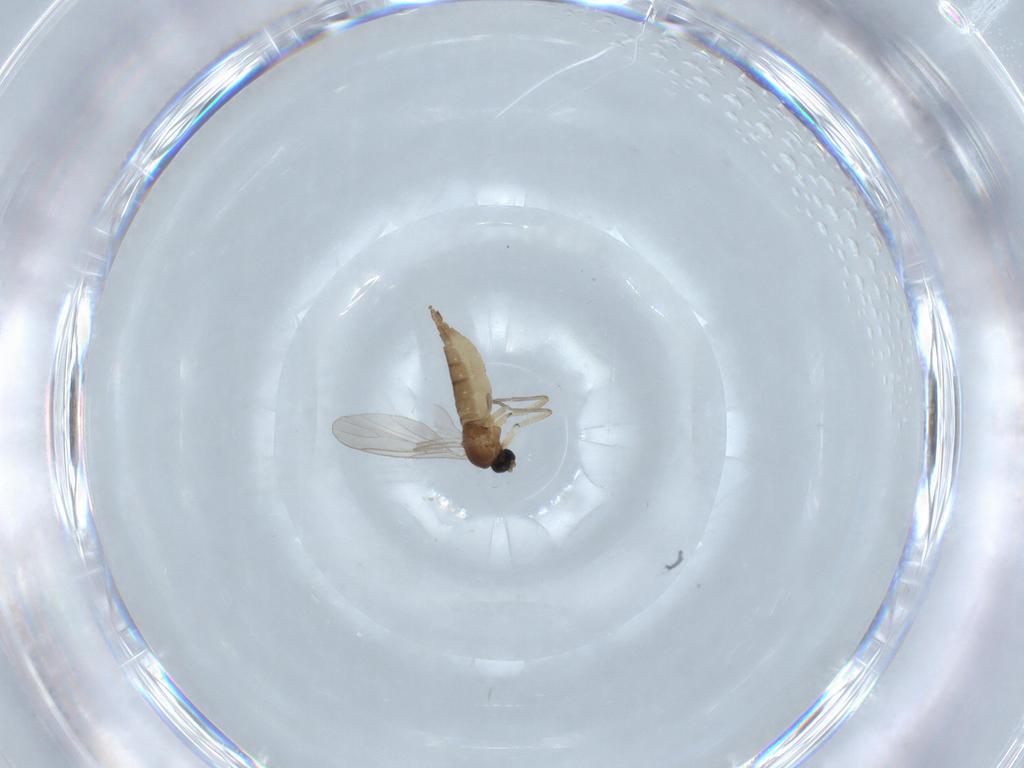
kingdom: Animalia
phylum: Arthropoda
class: Insecta
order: Diptera
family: Sciaridae
